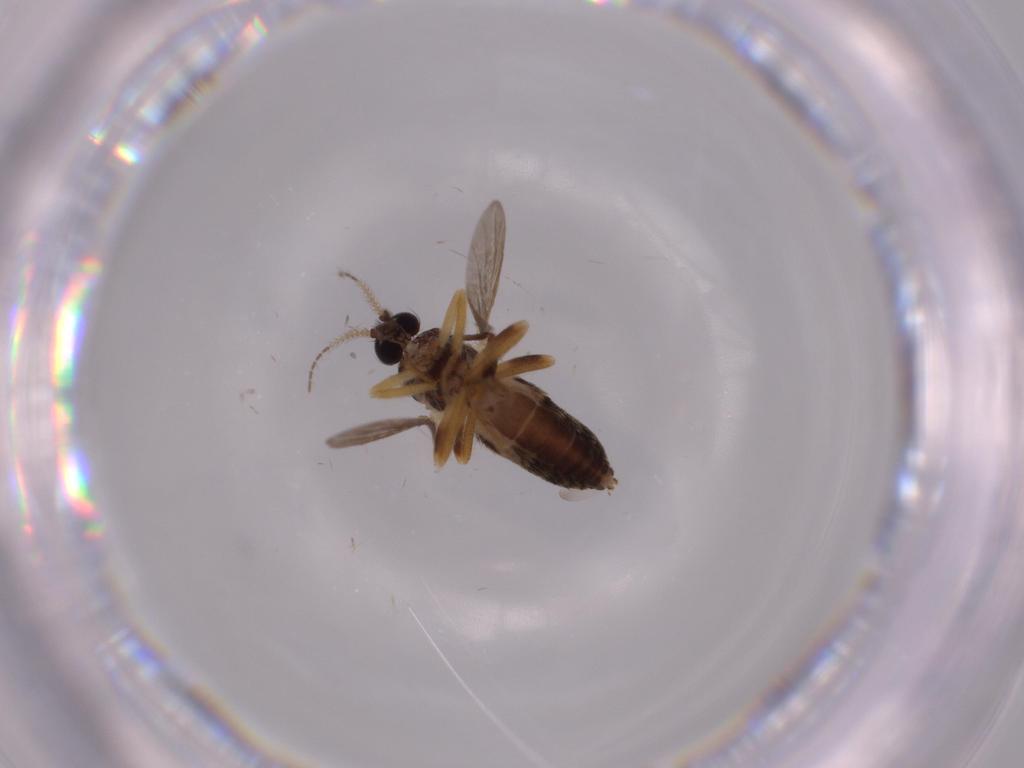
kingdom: Animalia
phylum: Arthropoda
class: Insecta
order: Diptera
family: Ceratopogonidae
